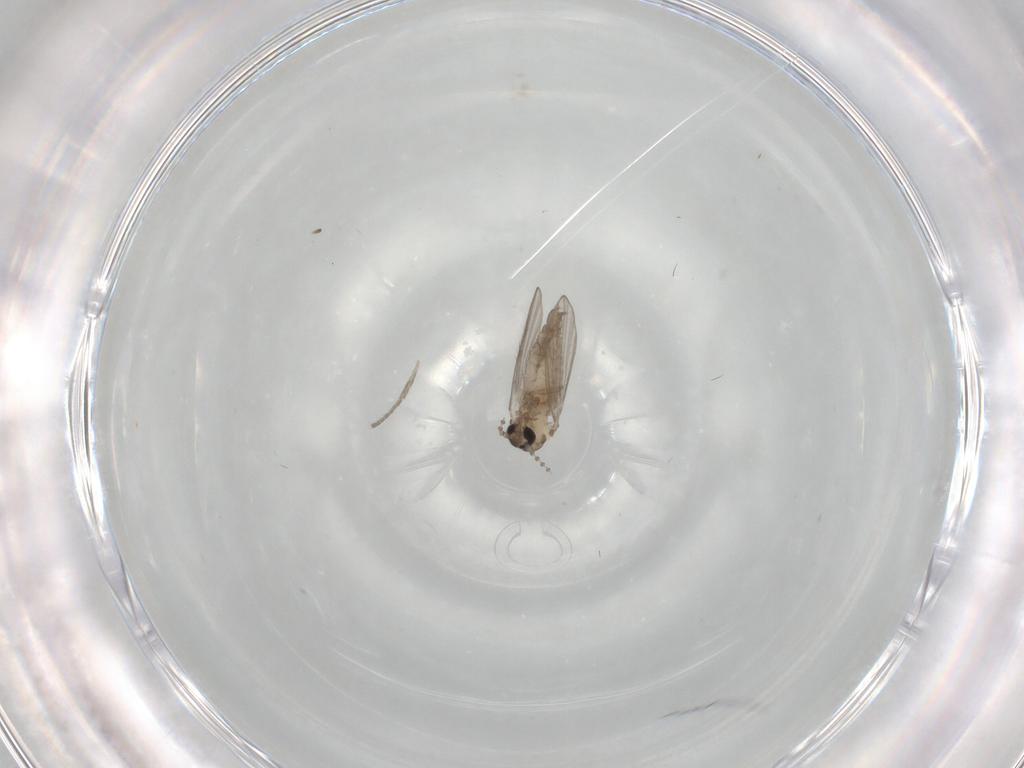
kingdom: Animalia
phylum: Arthropoda
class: Insecta
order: Diptera
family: Psychodidae
